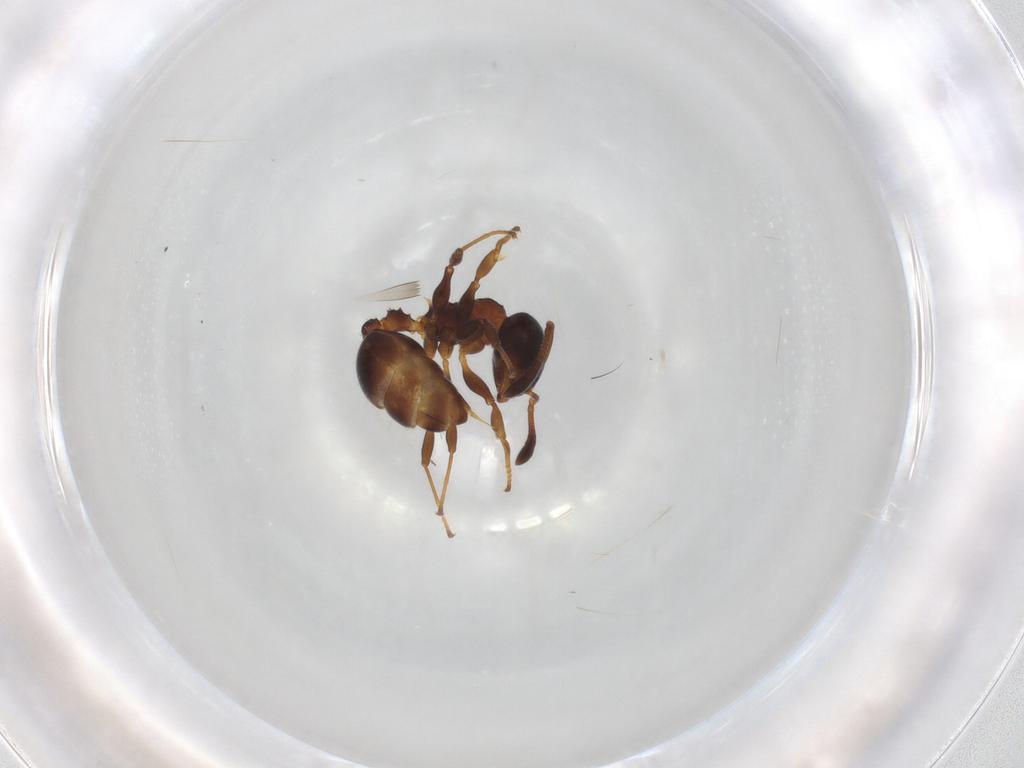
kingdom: Animalia
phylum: Arthropoda
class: Insecta
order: Hymenoptera
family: Formicidae
